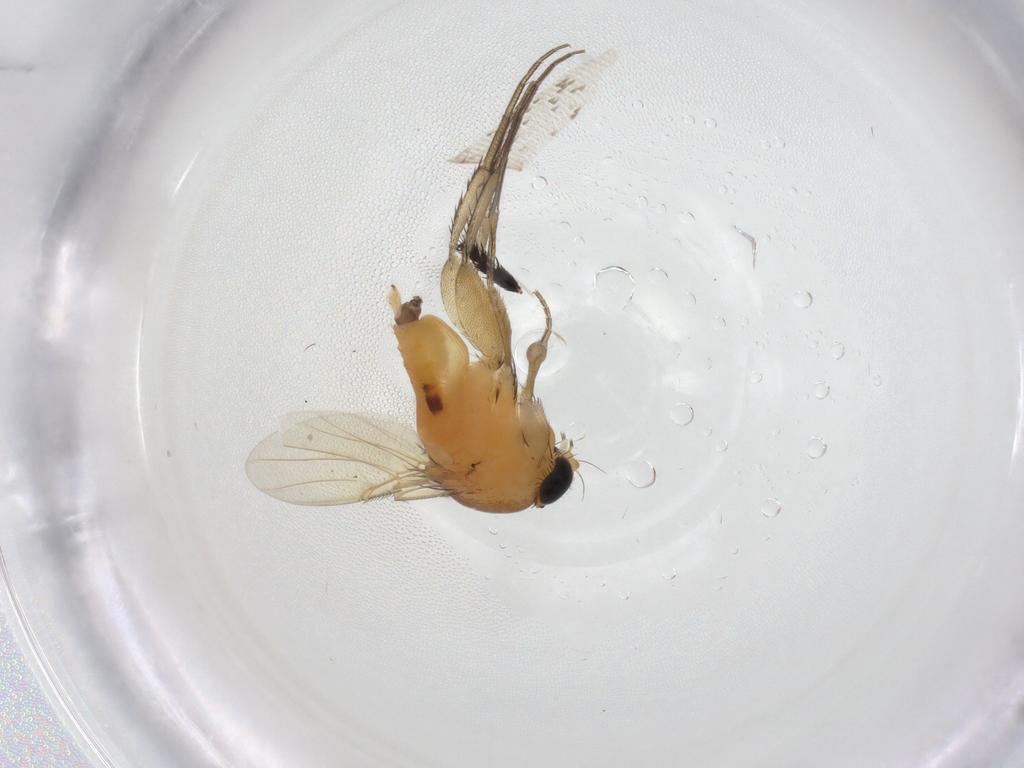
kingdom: Animalia
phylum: Arthropoda
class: Insecta
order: Diptera
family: Phoridae
